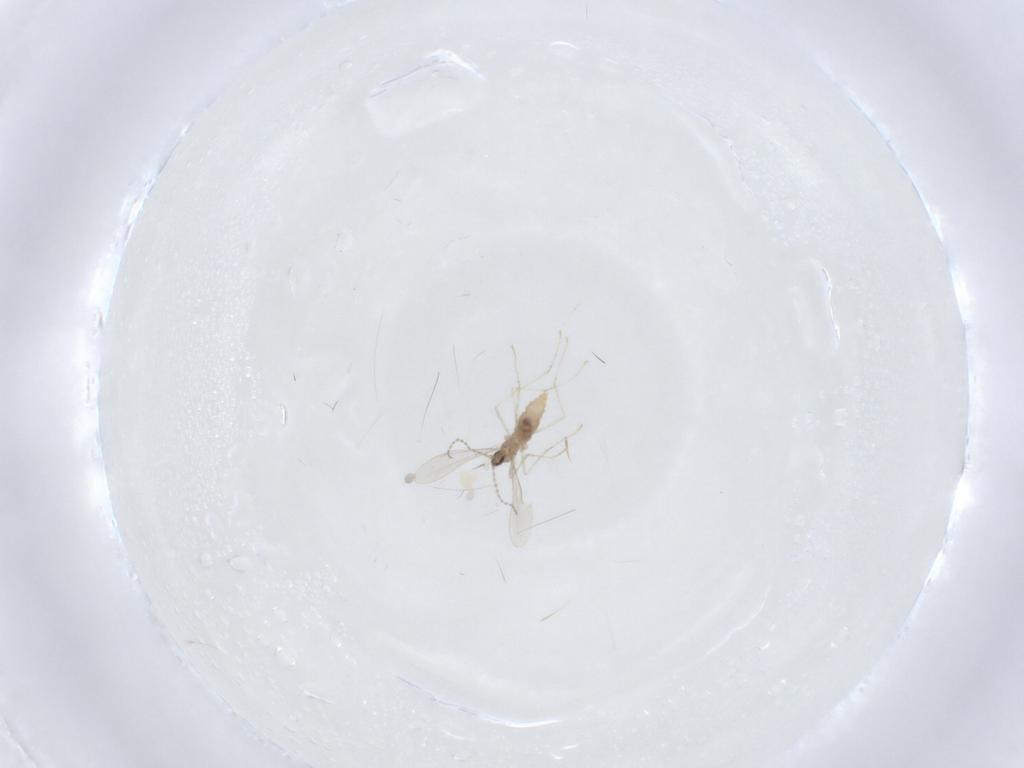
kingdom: Animalia
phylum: Arthropoda
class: Insecta
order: Diptera
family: Cecidomyiidae
